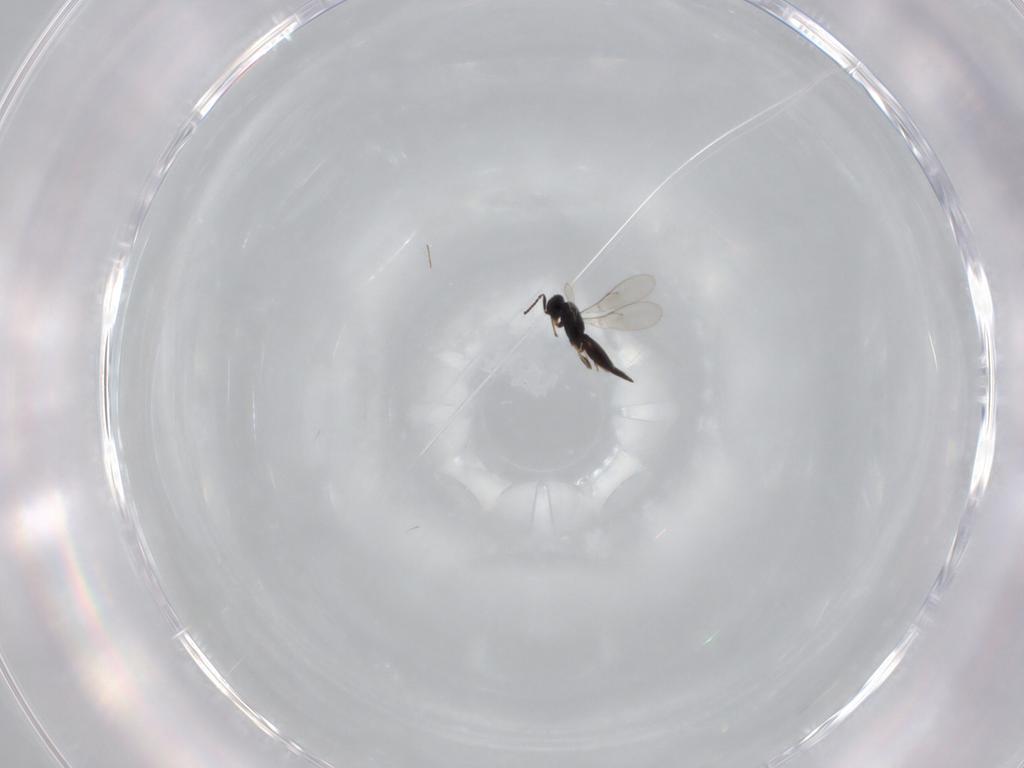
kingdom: Animalia
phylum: Arthropoda
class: Insecta
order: Hymenoptera
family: Scelionidae
